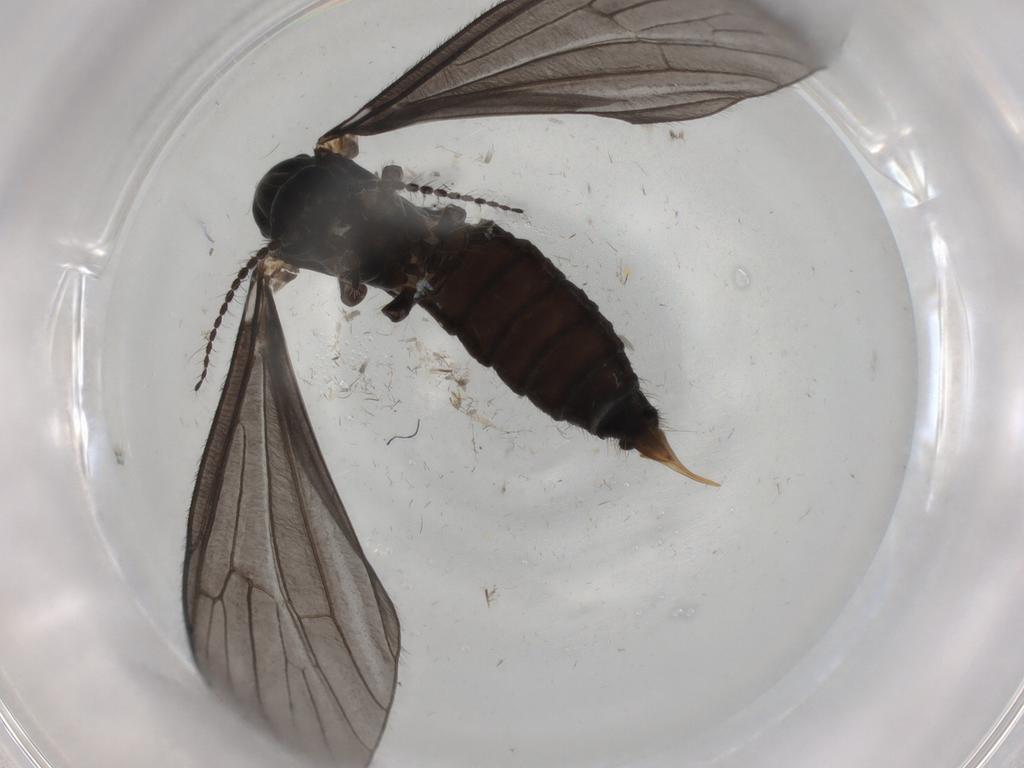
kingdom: Animalia
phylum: Arthropoda
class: Insecta
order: Diptera
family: Limoniidae
